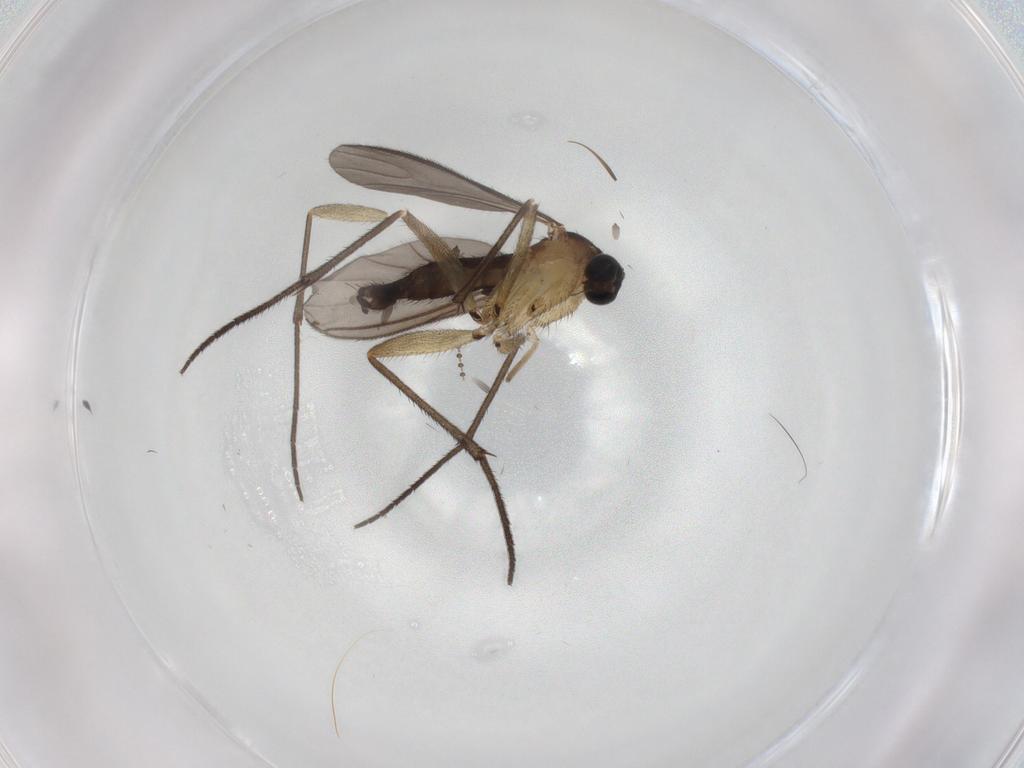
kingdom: Animalia
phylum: Arthropoda
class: Insecta
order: Diptera
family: Sciaridae
